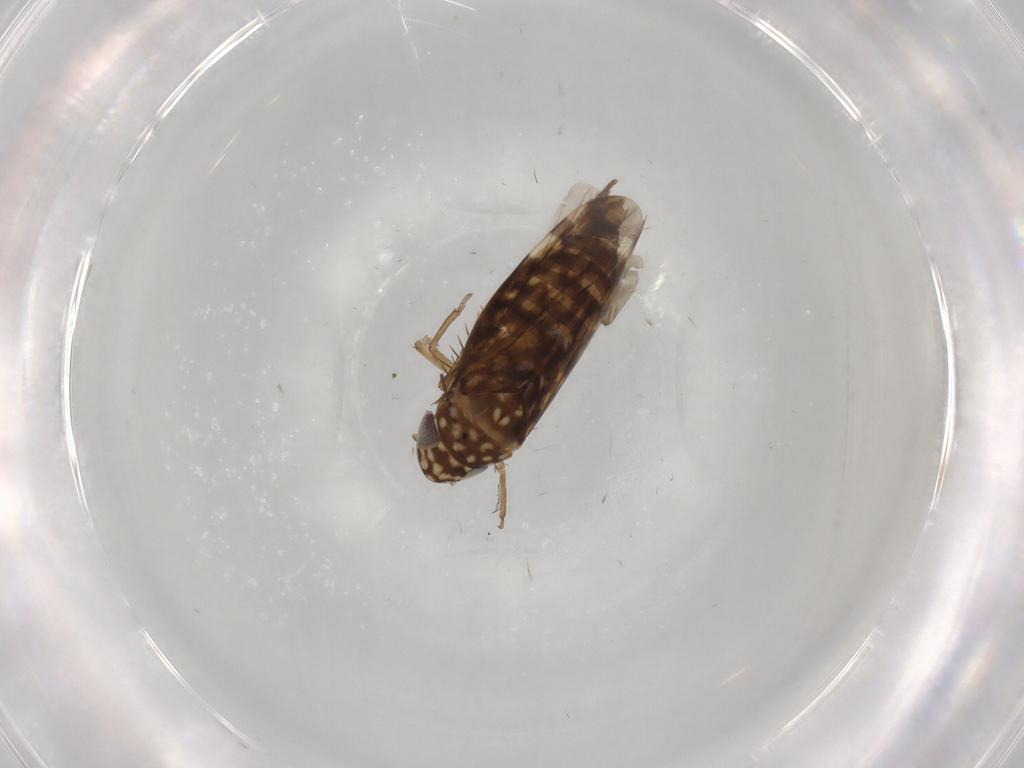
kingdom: Animalia
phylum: Arthropoda
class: Insecta
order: Hemiptera
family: Cicadellidae
